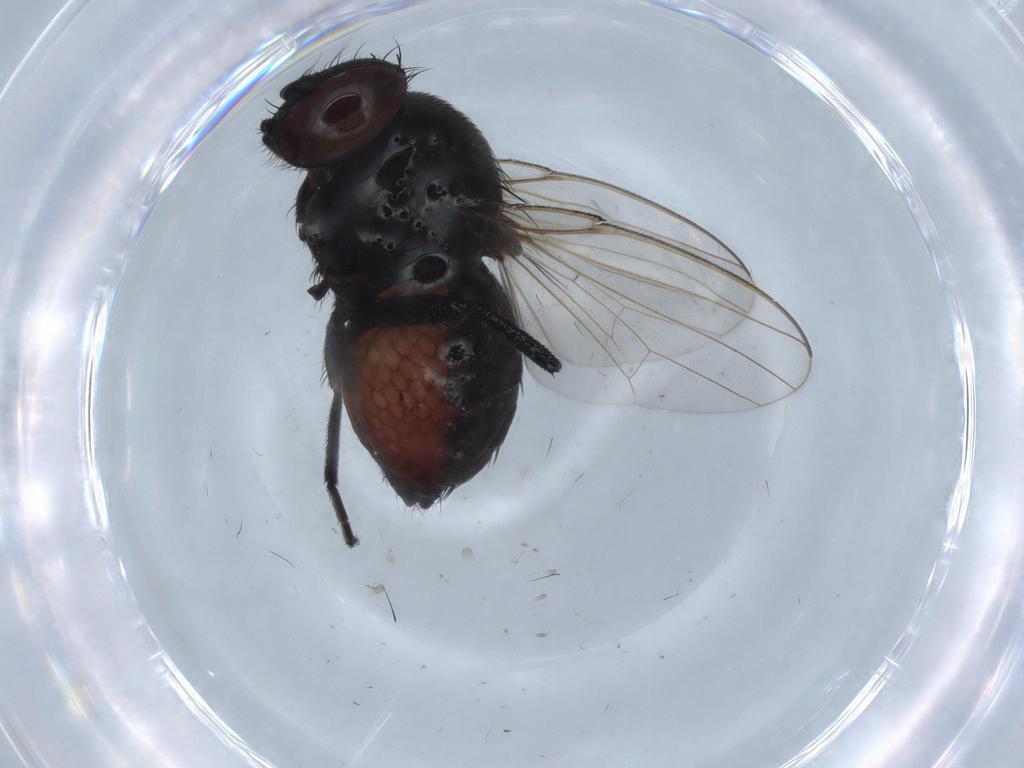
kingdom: Animalia
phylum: Arthropoda
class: Insecta
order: Diptera
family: Milichiidae
